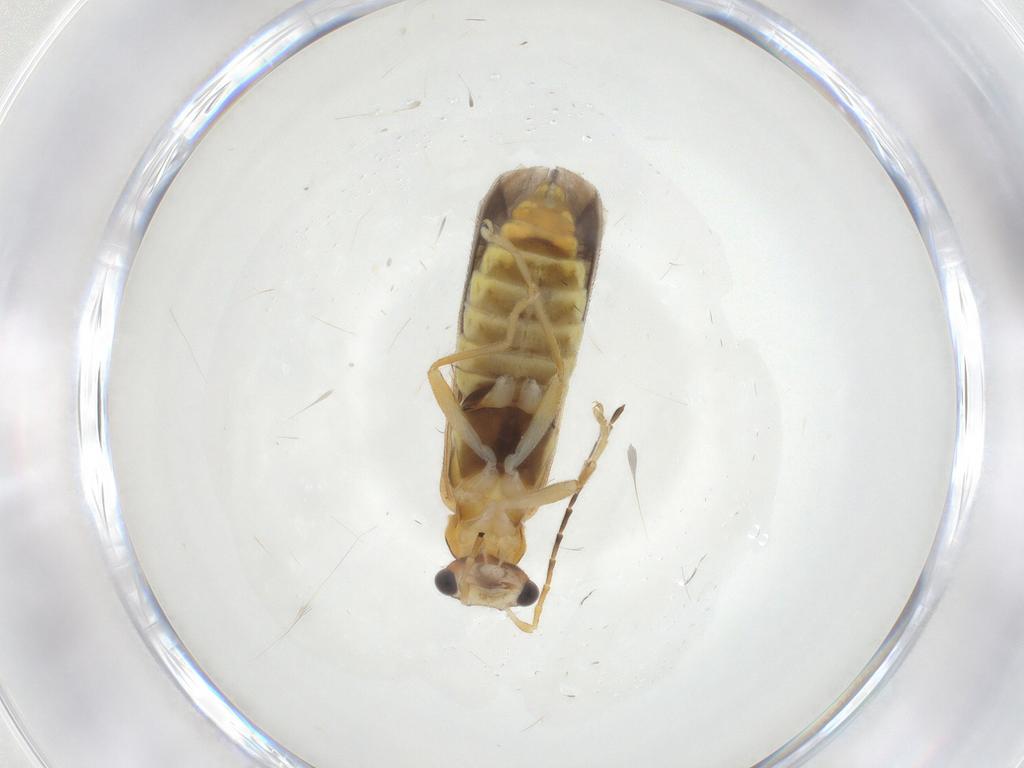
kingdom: Animalia
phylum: Arthropoda
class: Insecta
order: Coleoptera
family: Cantharidae
